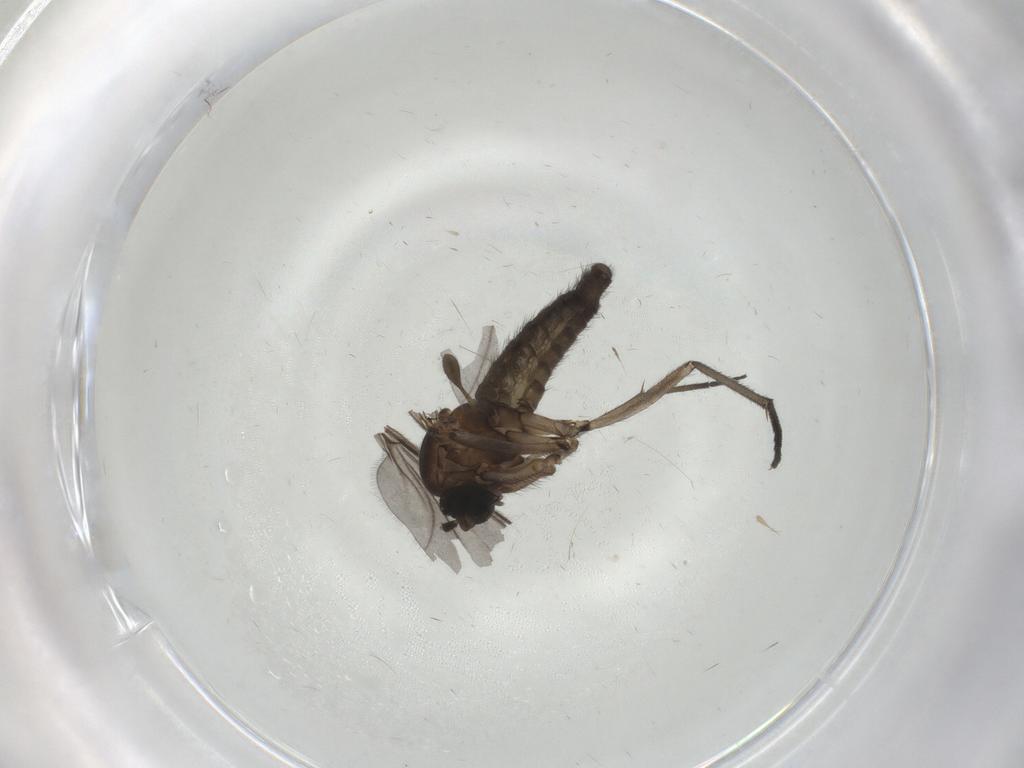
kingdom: Animalia
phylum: Arthropoda
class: Insecta
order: Diptera
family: Sciaridae
